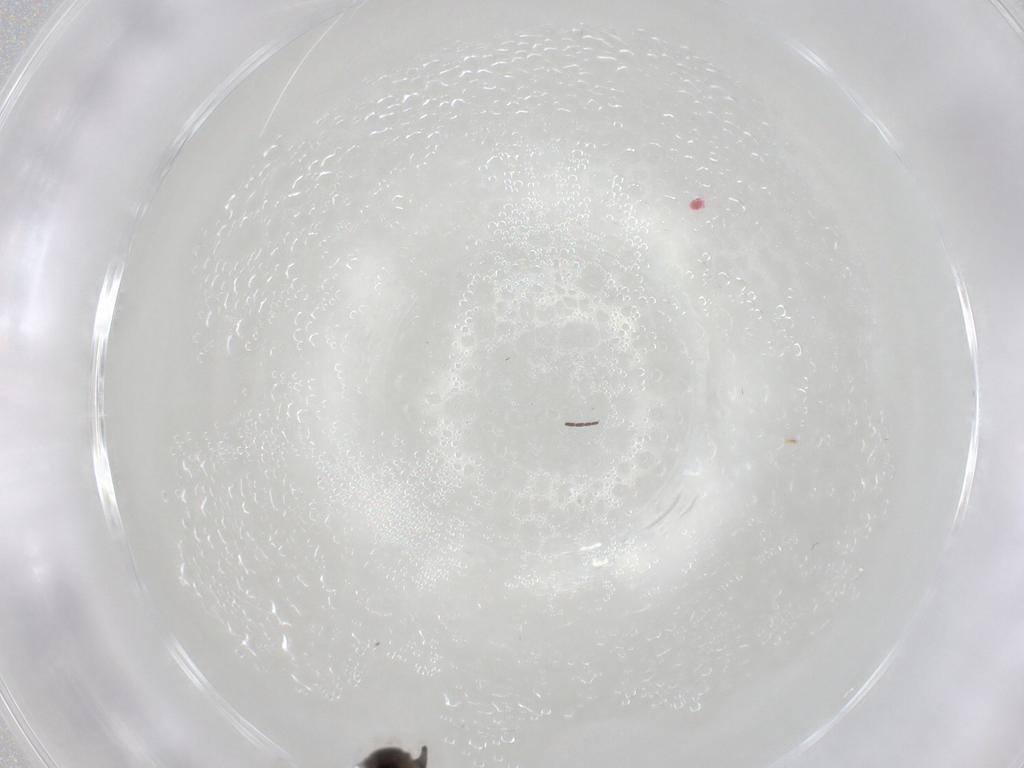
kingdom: Animalia
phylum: Arthropoda
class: Insecta
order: Diptera
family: Sciaridae
